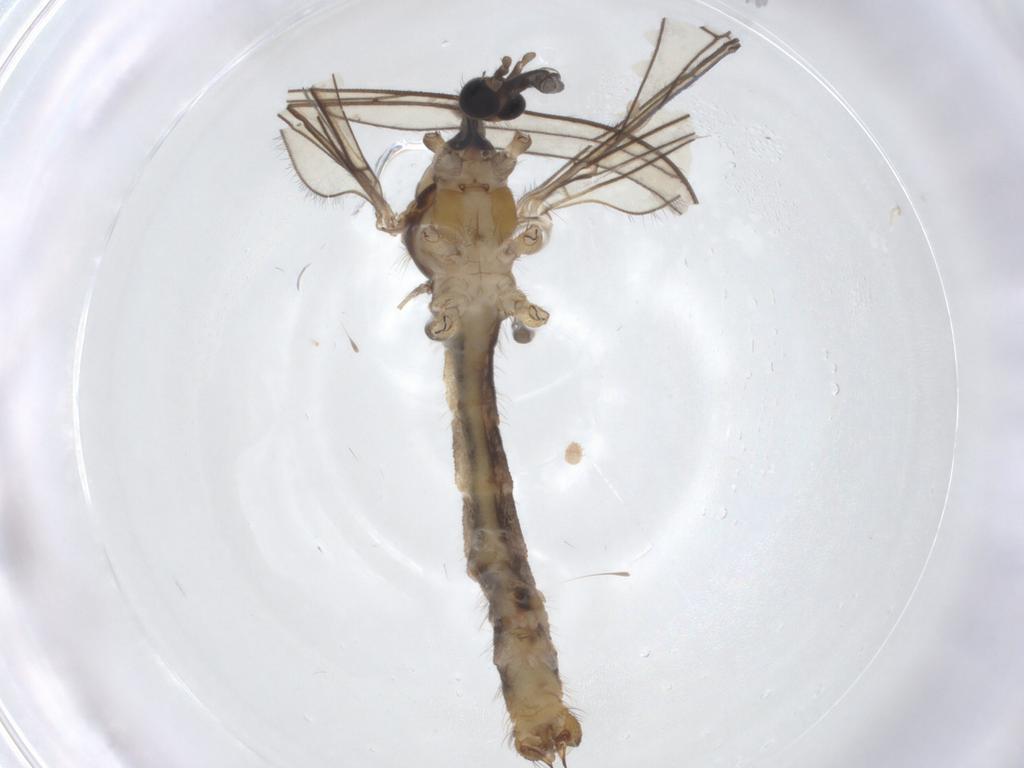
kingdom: Animalia
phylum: Arthropoda
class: Insecta
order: Diptera
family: Limoniidae
